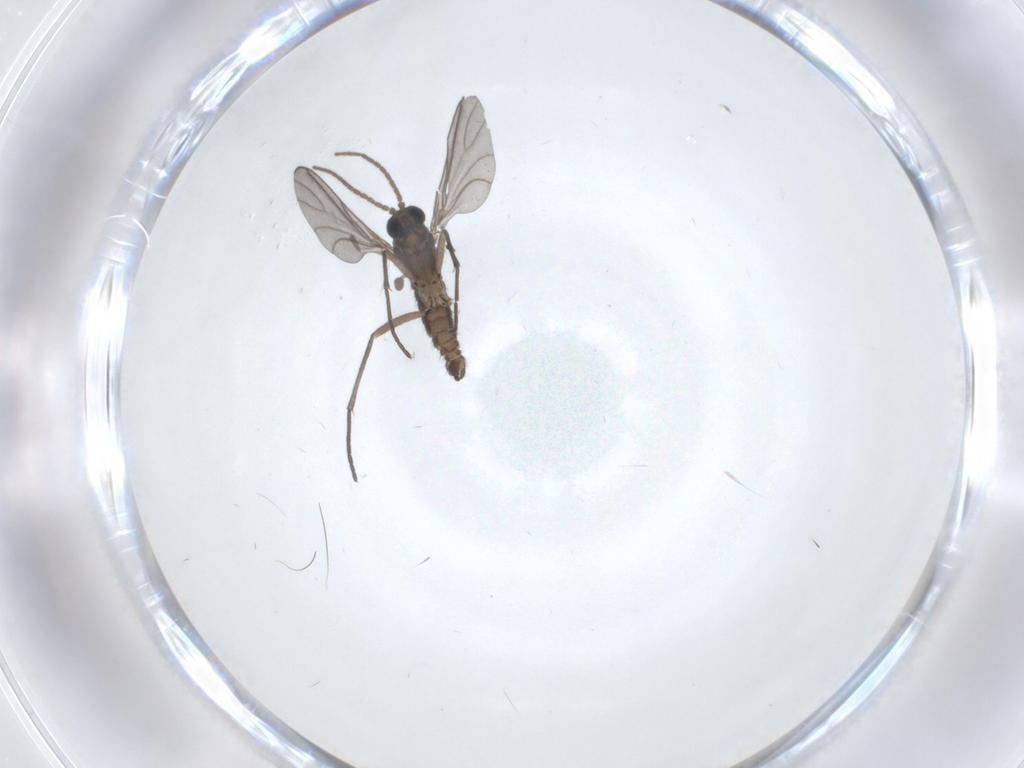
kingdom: Animalia
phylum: Arthropoda
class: Insecta
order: Diptera
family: Sciaridae
